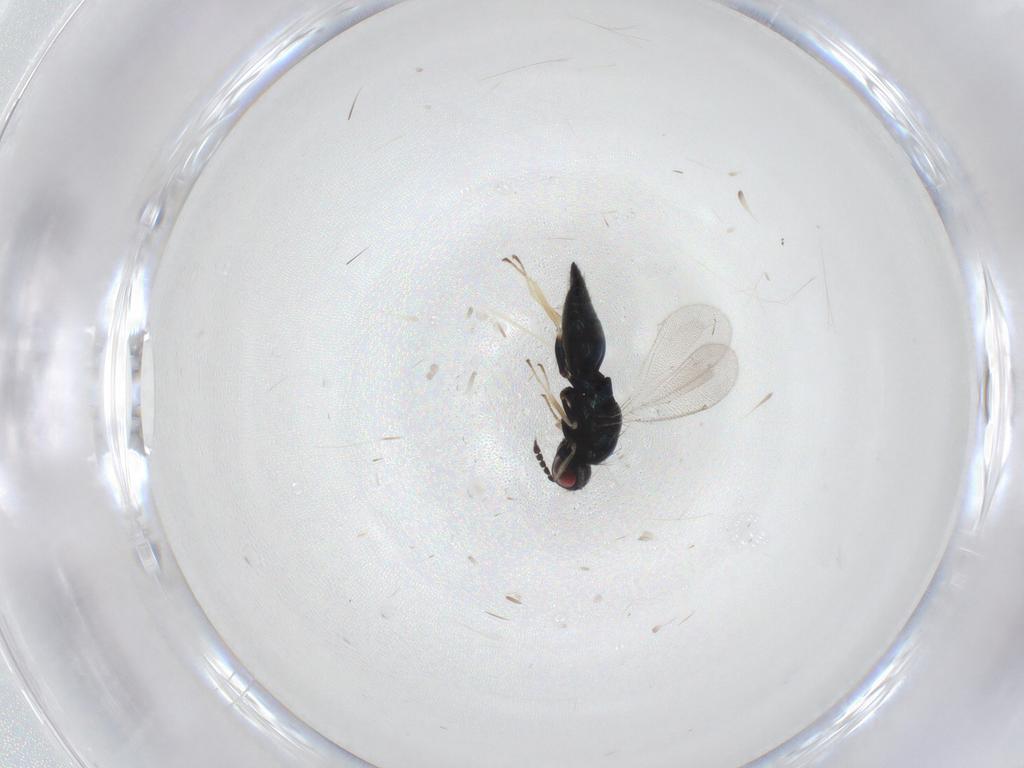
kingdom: Animalia
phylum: Arthropoda
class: Insecta
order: Hymenoptera
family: Eulophidae
